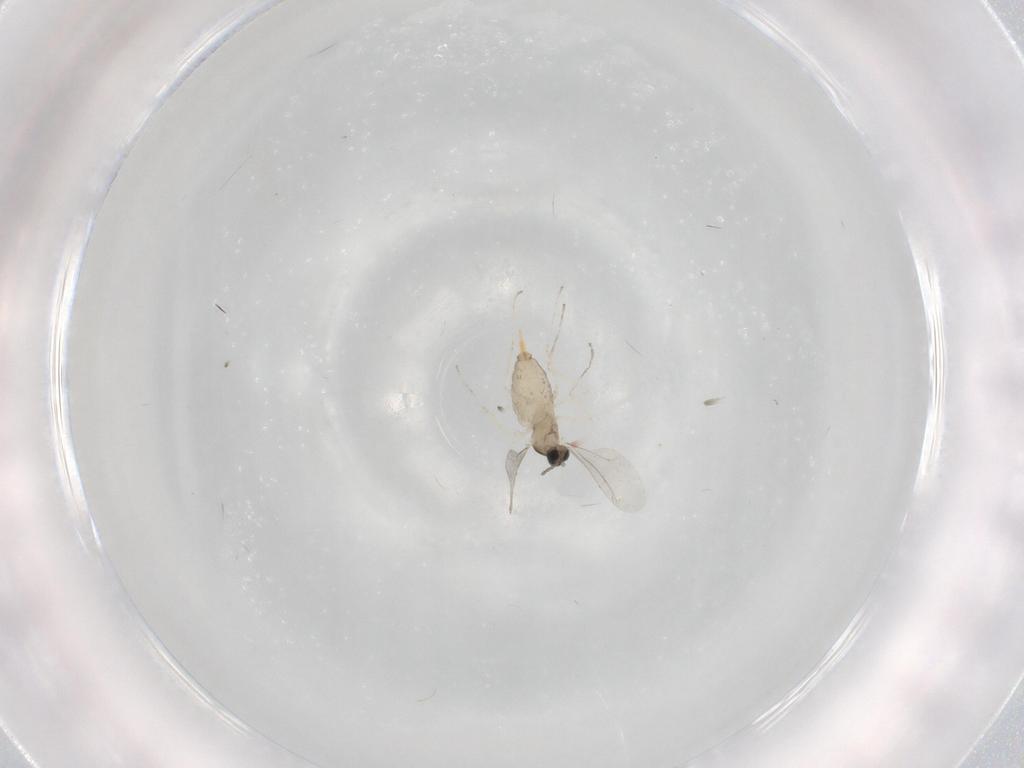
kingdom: Animalia
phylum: Arthropoda
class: Insecta
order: Diptera
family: Cecidomyiidae
